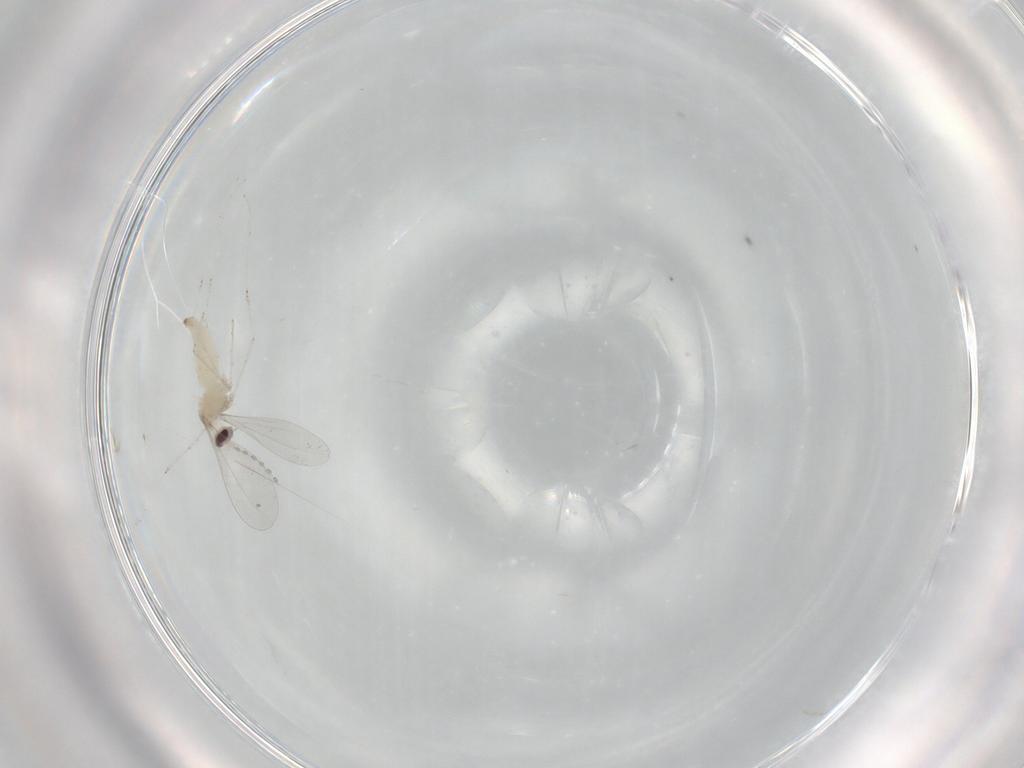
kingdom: Animalia
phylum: Arthropoda
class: Insecta
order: Diptera
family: Cecidomyiidae
